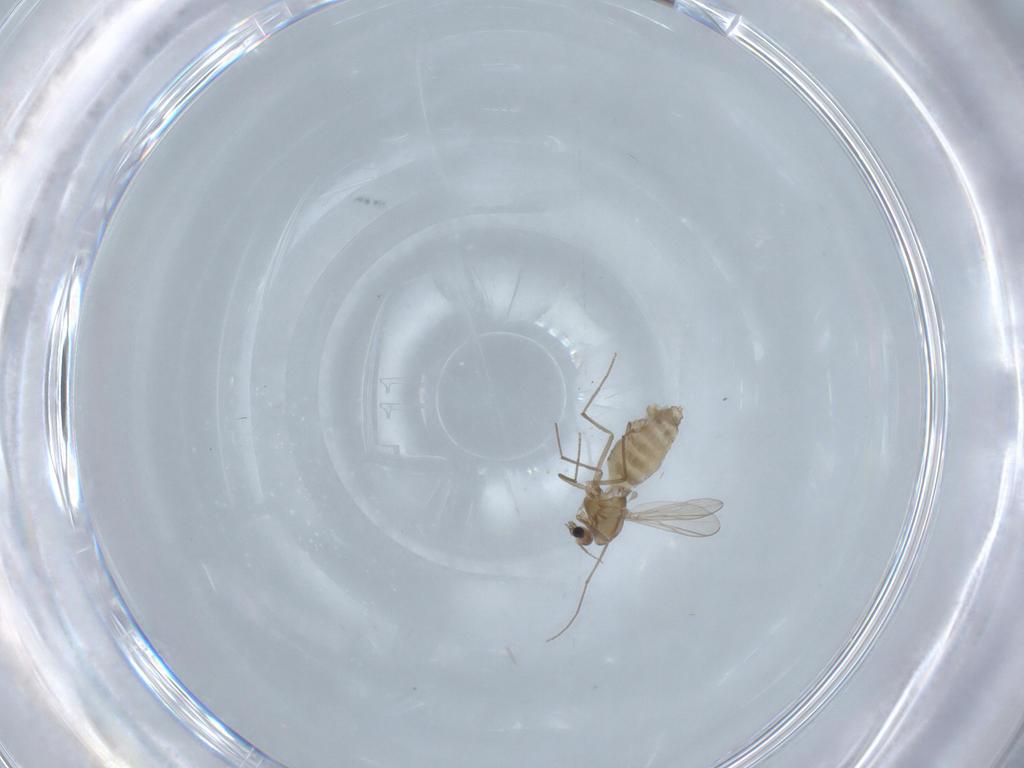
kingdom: Animalia
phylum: Arthropoda
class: Insecta
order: Diptera
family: Chironomidae
